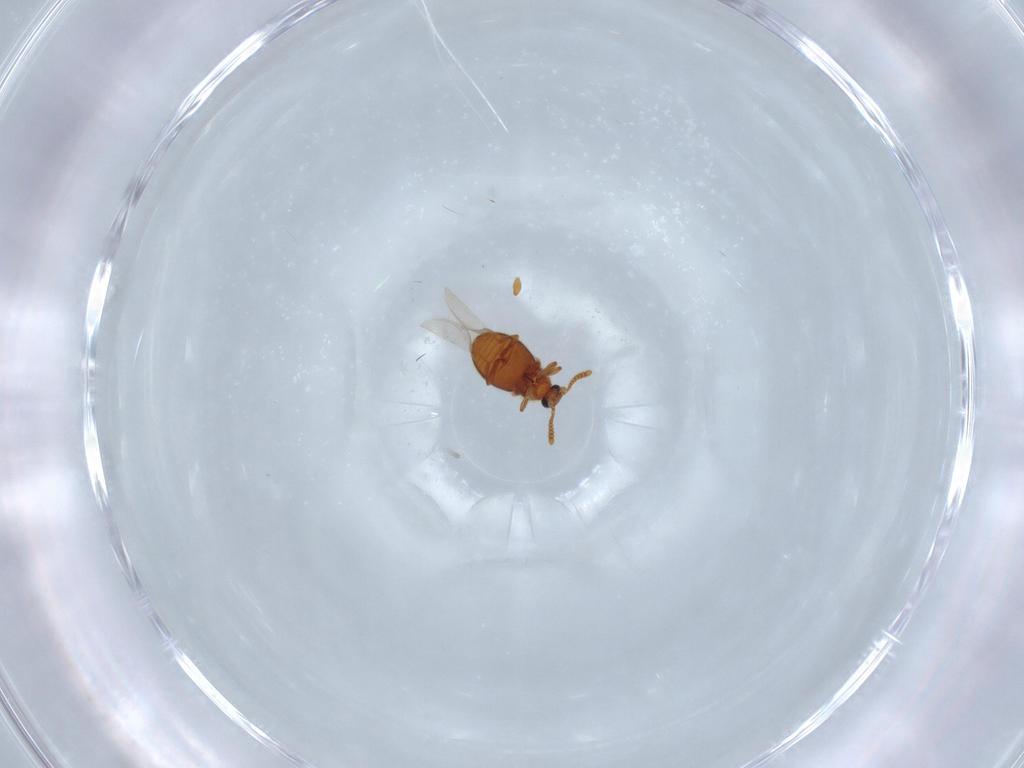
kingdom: Animalia
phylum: Arthropoda
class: Insecta
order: Coleoptera
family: Staphylinidae
